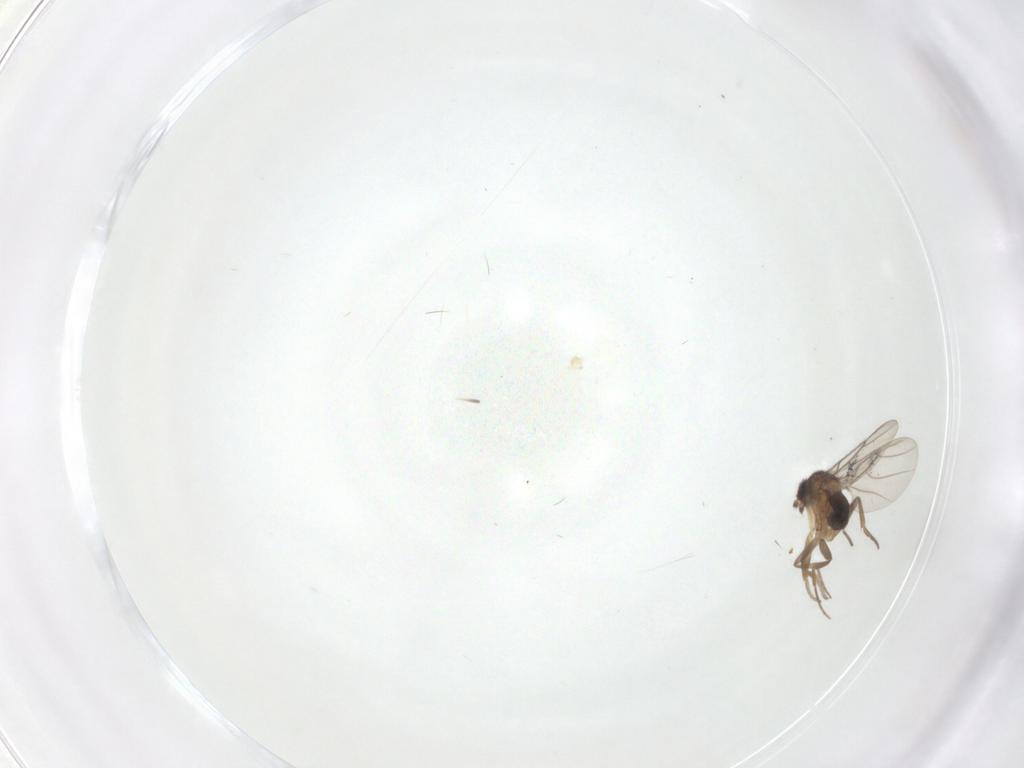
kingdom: Animalia
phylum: Arthropoda
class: Insecta
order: Diptera
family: Phoridae
